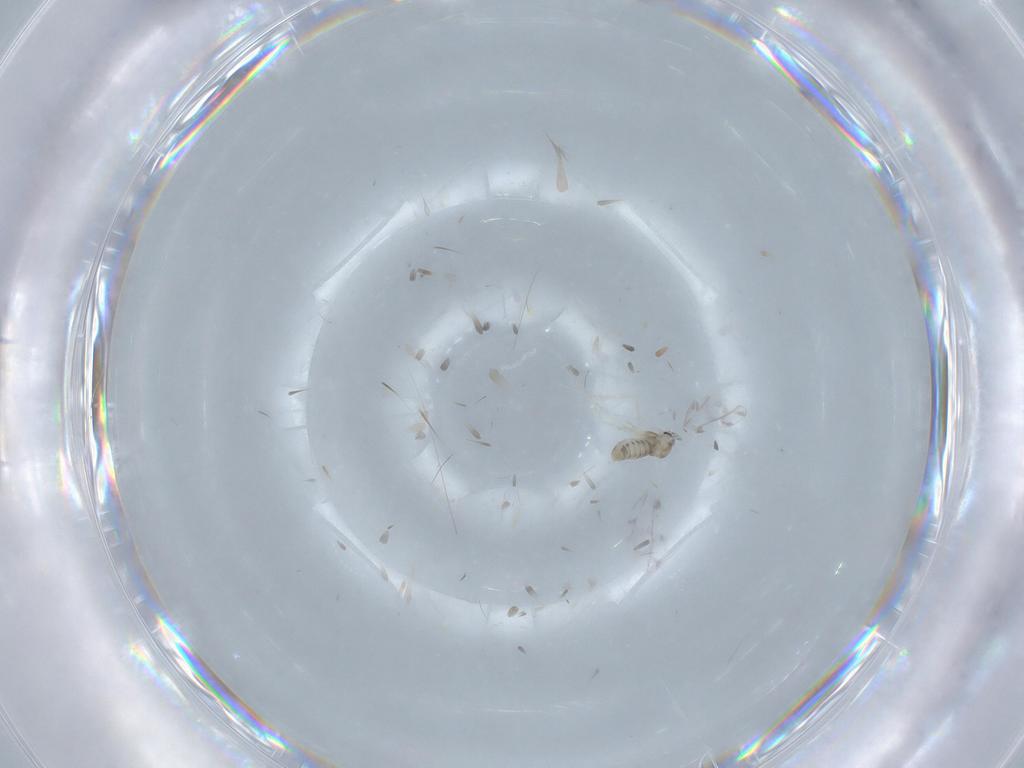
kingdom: Animalia
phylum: Arthropoda
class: Insecta
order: Diptera
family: Cecidomyiidae
